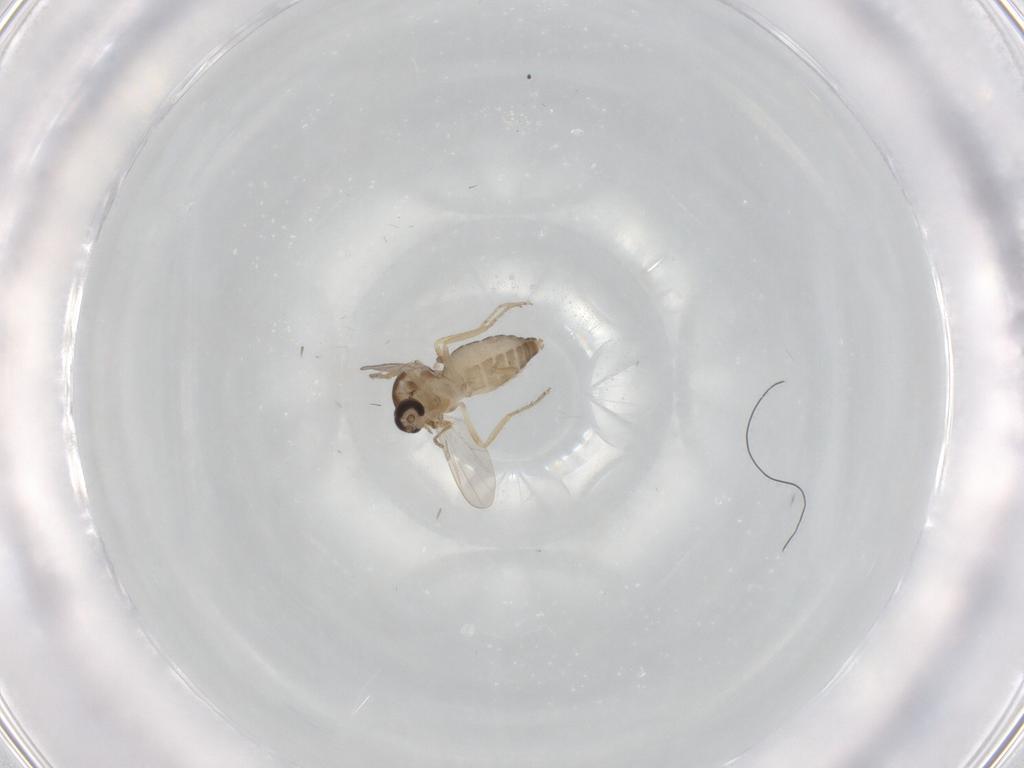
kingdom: Animalia
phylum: Arthropoda
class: Insecta
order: Diptera
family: Ceratopogonidae
